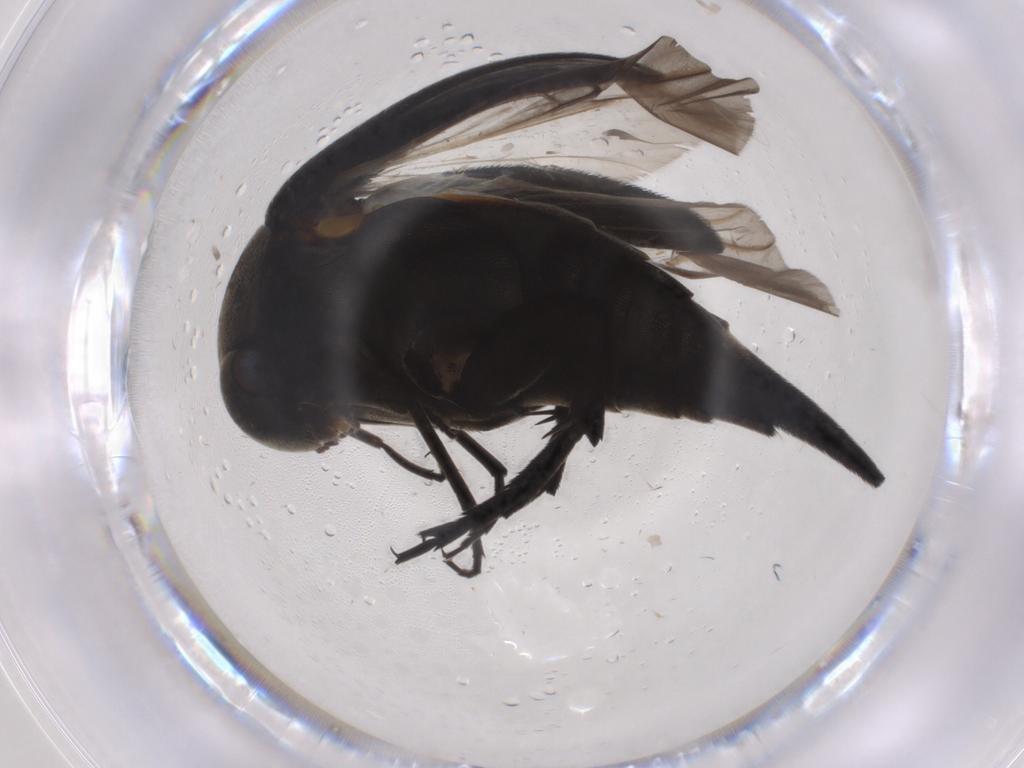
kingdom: Animalia
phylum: Arthropoda
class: Insecta
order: Coleoptera
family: Mordellidae
